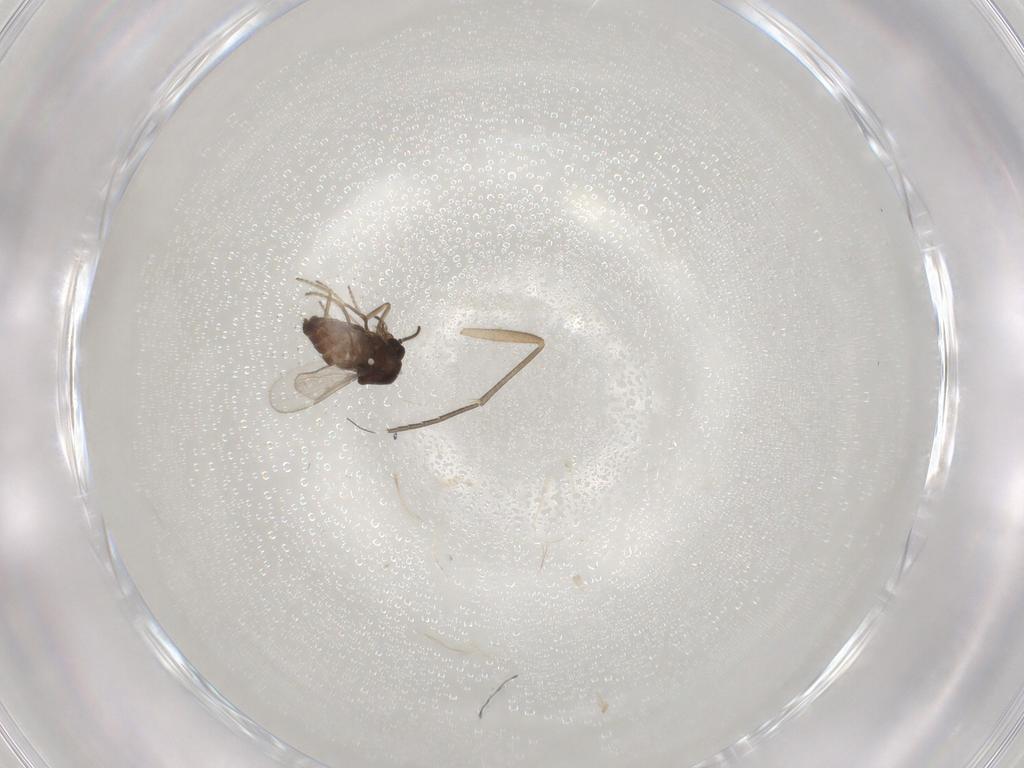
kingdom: Animalia
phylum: Arthropoda
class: Insecta
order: Diptera
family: Ceratopogonidae
